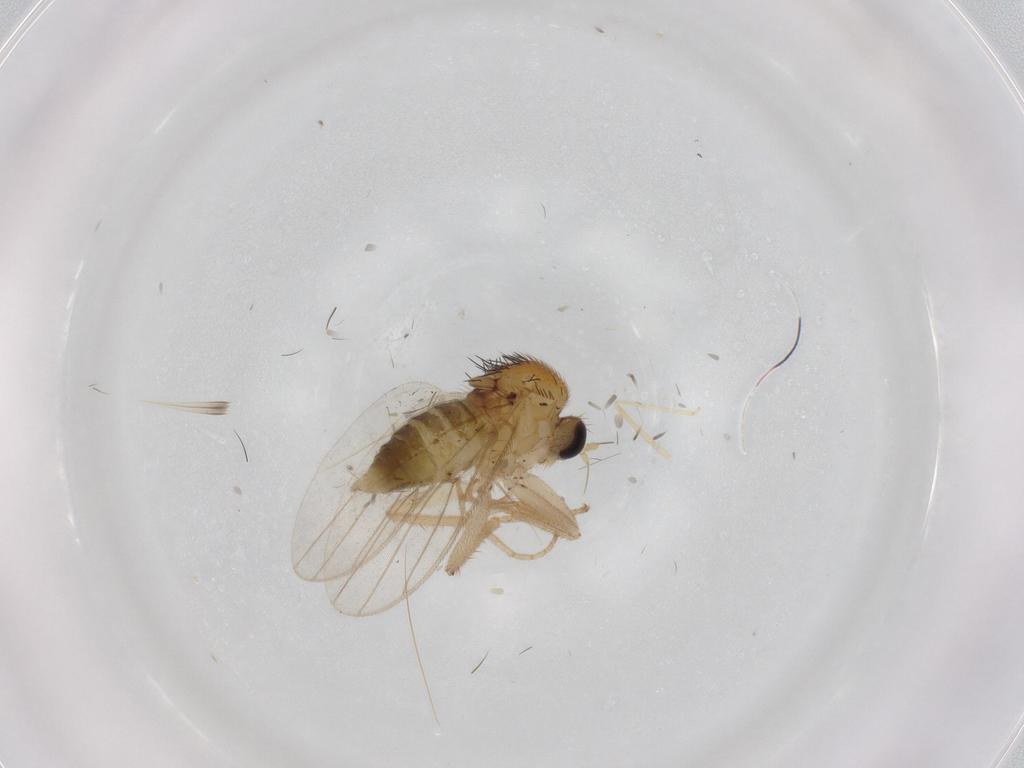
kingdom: Animalia
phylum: Arthropoda
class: Insecta
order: Diptera
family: Hybotidae
